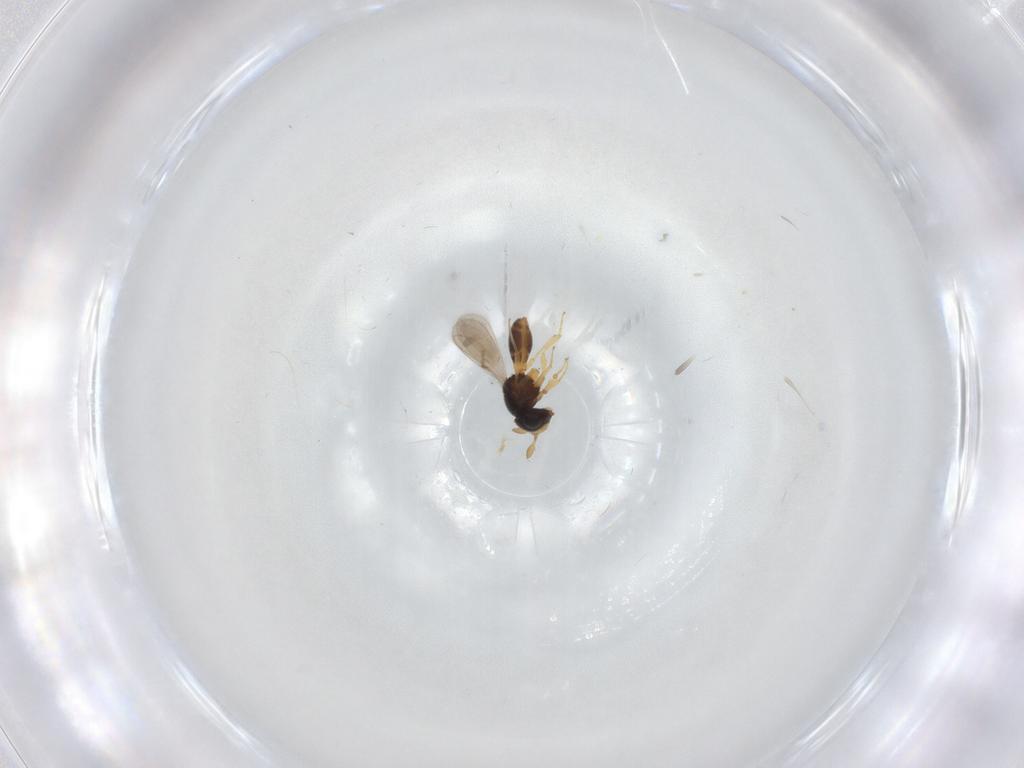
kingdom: Animalia
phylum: Arthropoda
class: Insecta
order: Hymenoptera
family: Scelionidae
